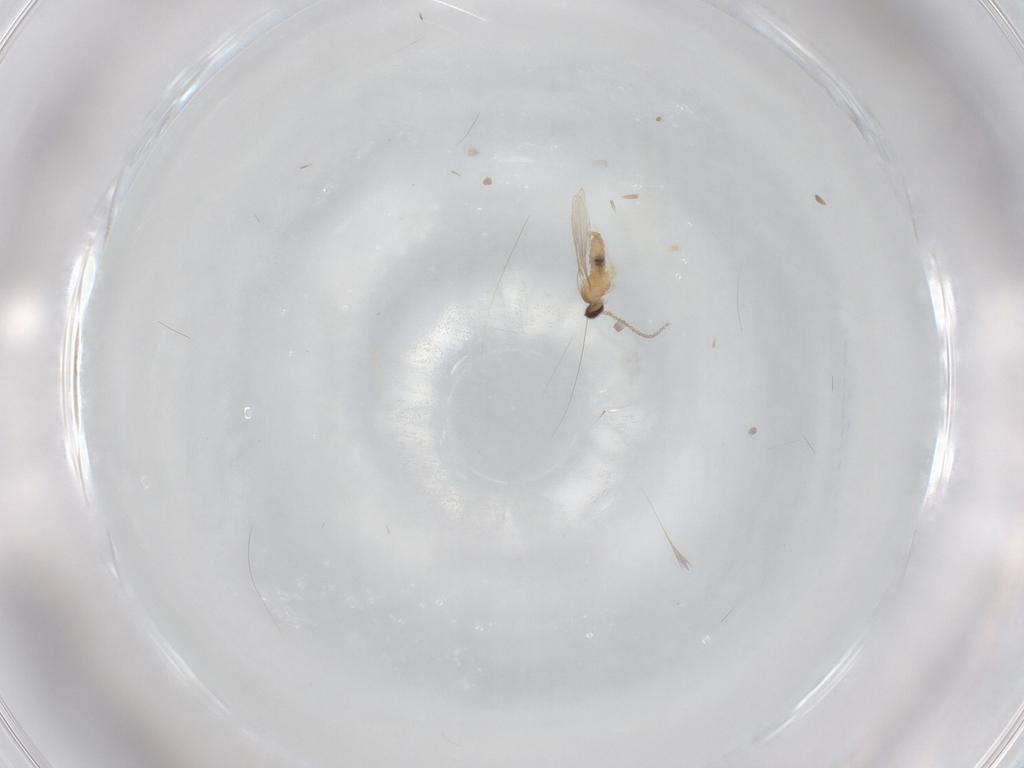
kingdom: Animalia
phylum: Arthropoda
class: Insecta
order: Diptera
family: Cecidomyiidae
